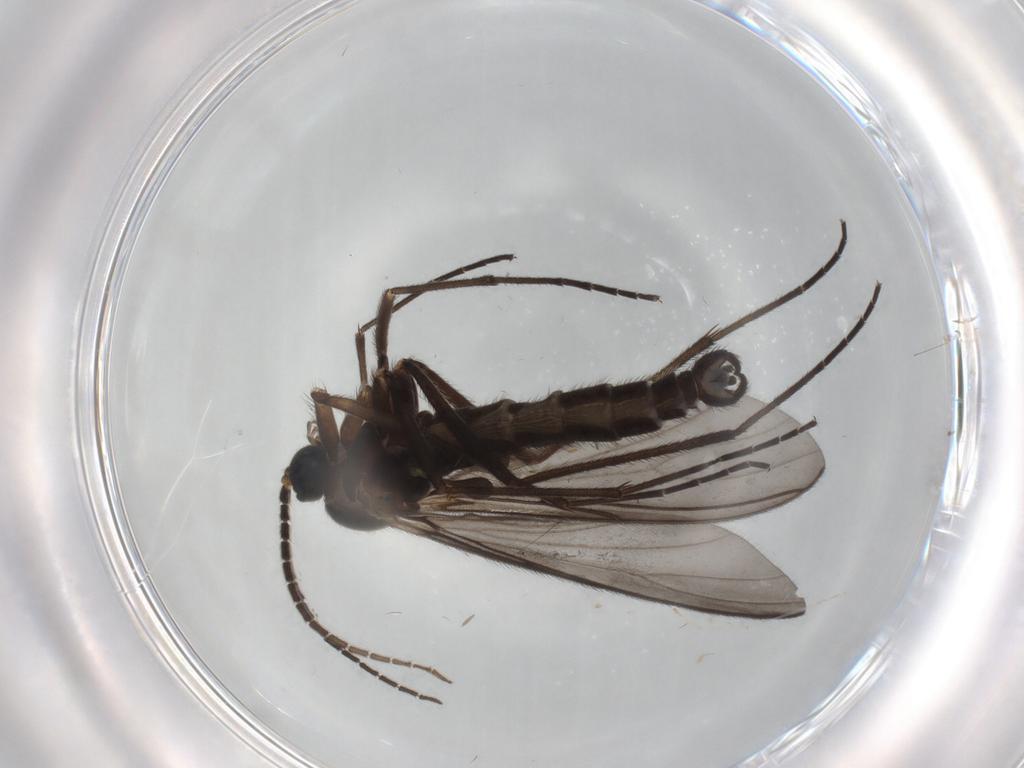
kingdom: Animalia
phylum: Arthropoda
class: Insecta
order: Diptera
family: Sciaridae
